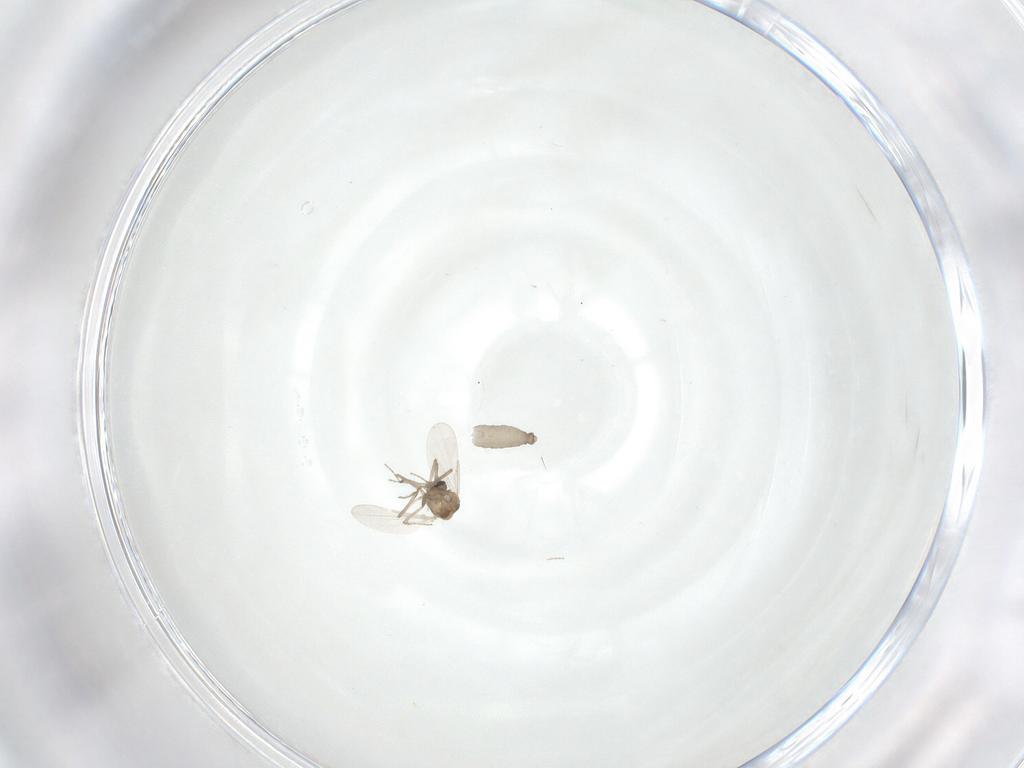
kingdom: Animalia
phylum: Arthropoda
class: Insecta
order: Diptera
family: Ceratopogonidae
